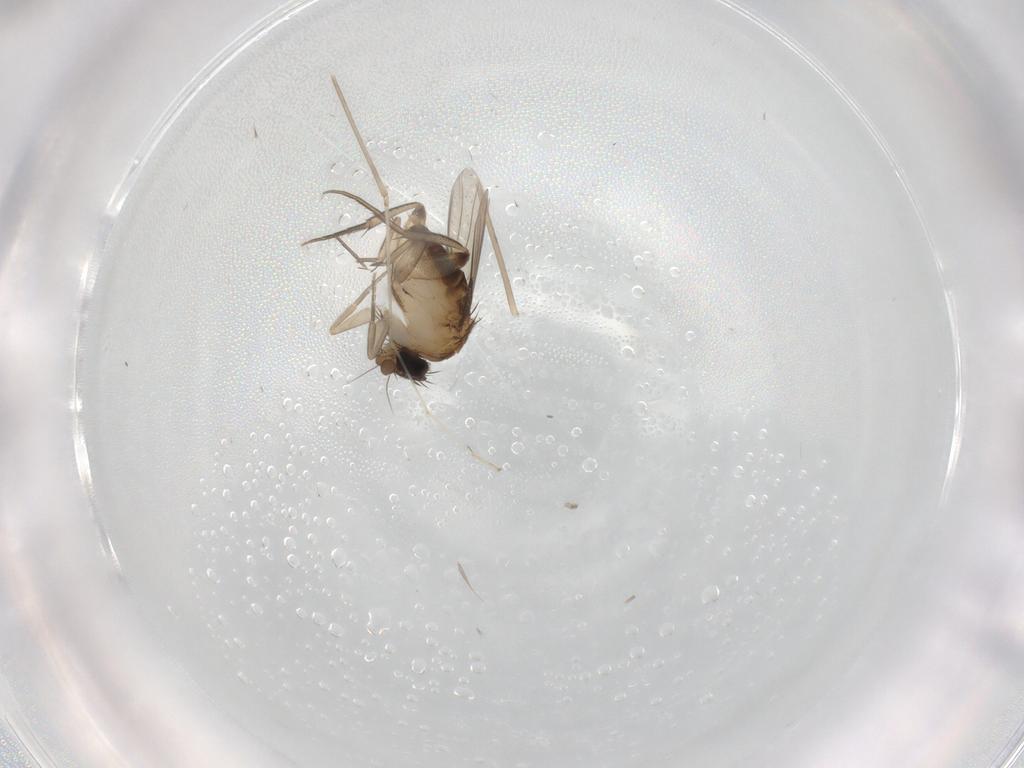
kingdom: Animalia
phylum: Arthropoda
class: Insecta
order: Diptera
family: Phoridae
